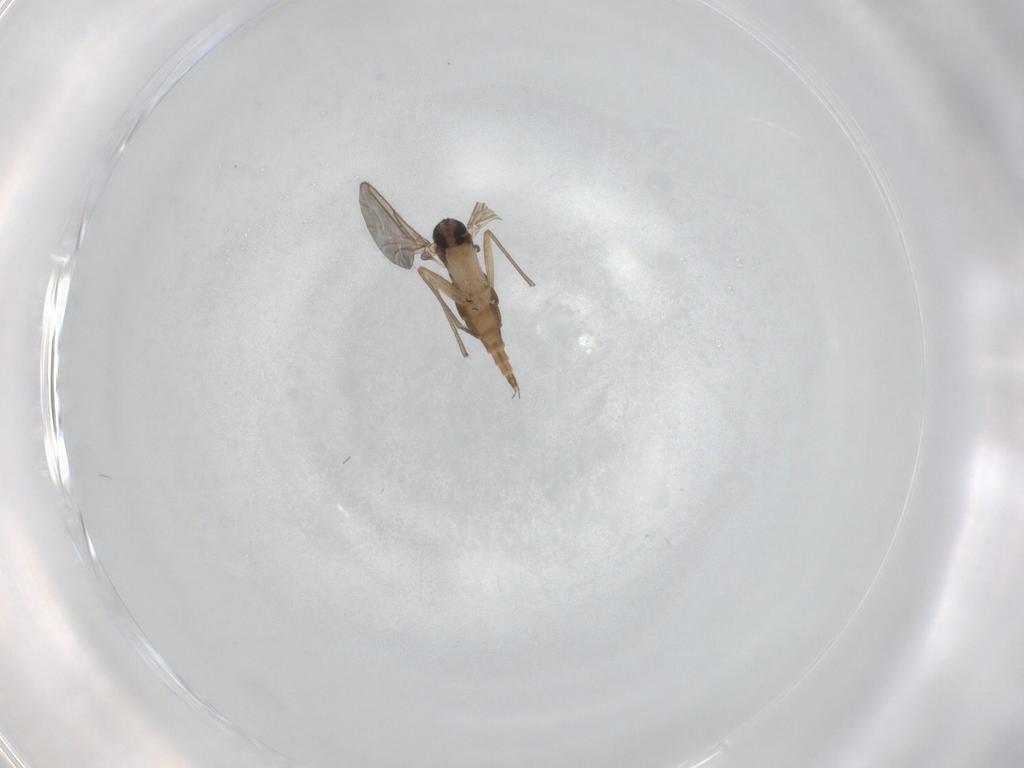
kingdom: Animalia
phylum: Arthropoda
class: Insecta
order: Diptera
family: Sciaridae
